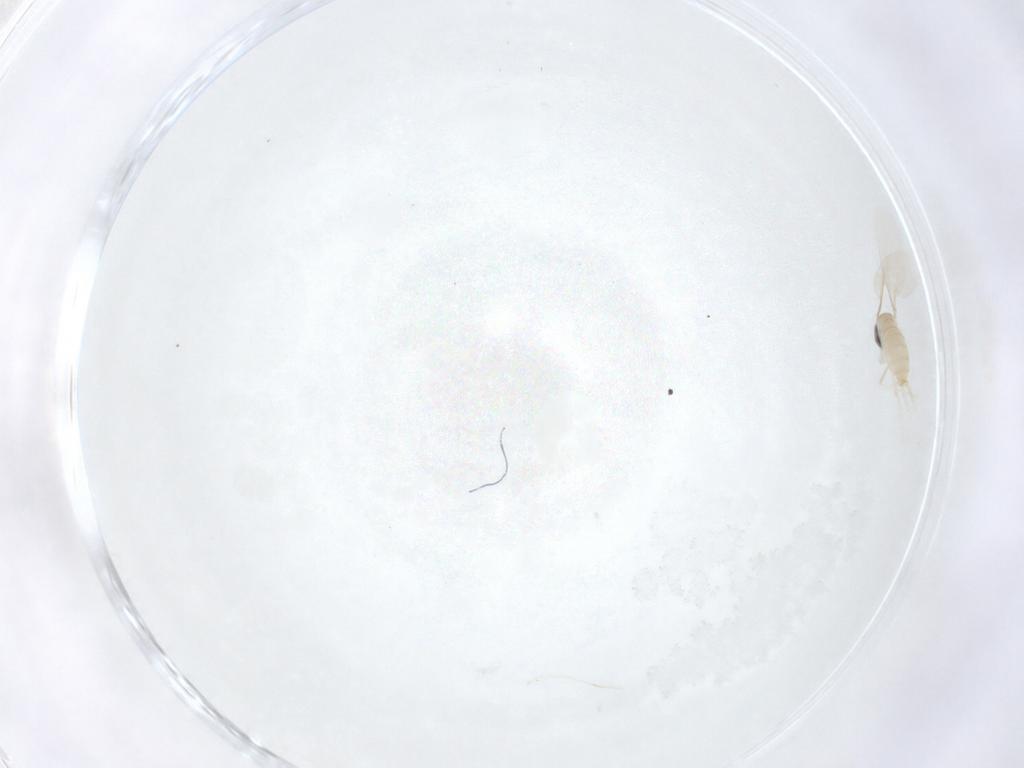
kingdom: Animalia
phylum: Arthropoda
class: Insecta
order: Diptera
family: Cecidomyiidae
